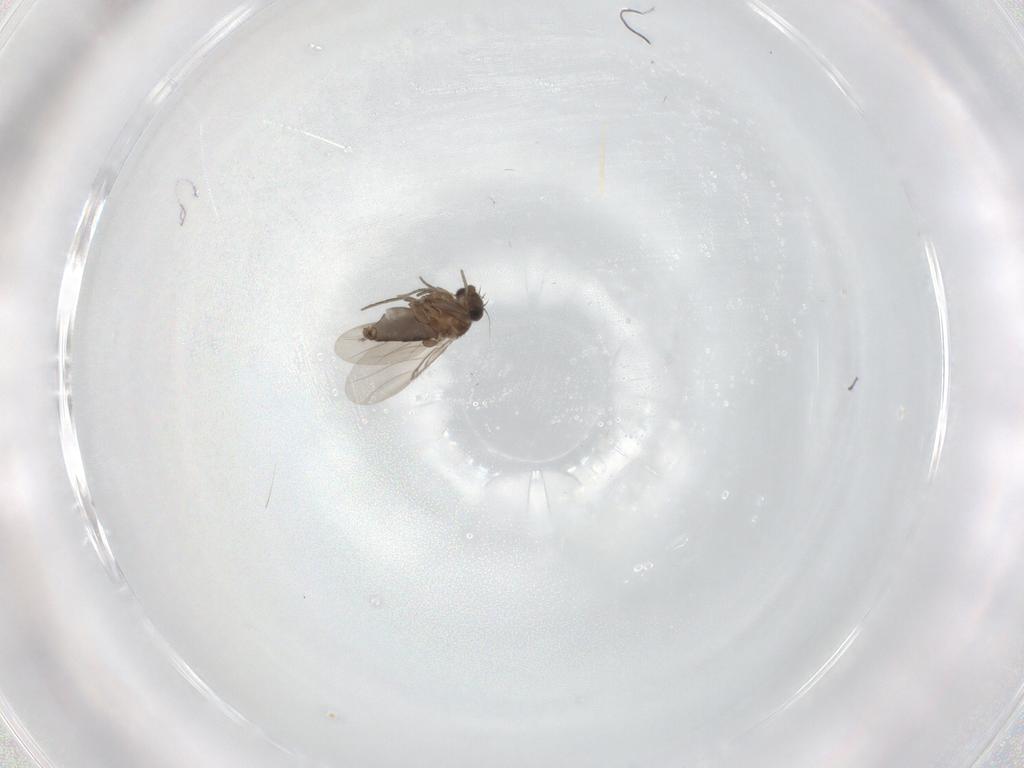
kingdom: Animalia
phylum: Arthropoda
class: Insecta
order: Diptera
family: Phoridae
